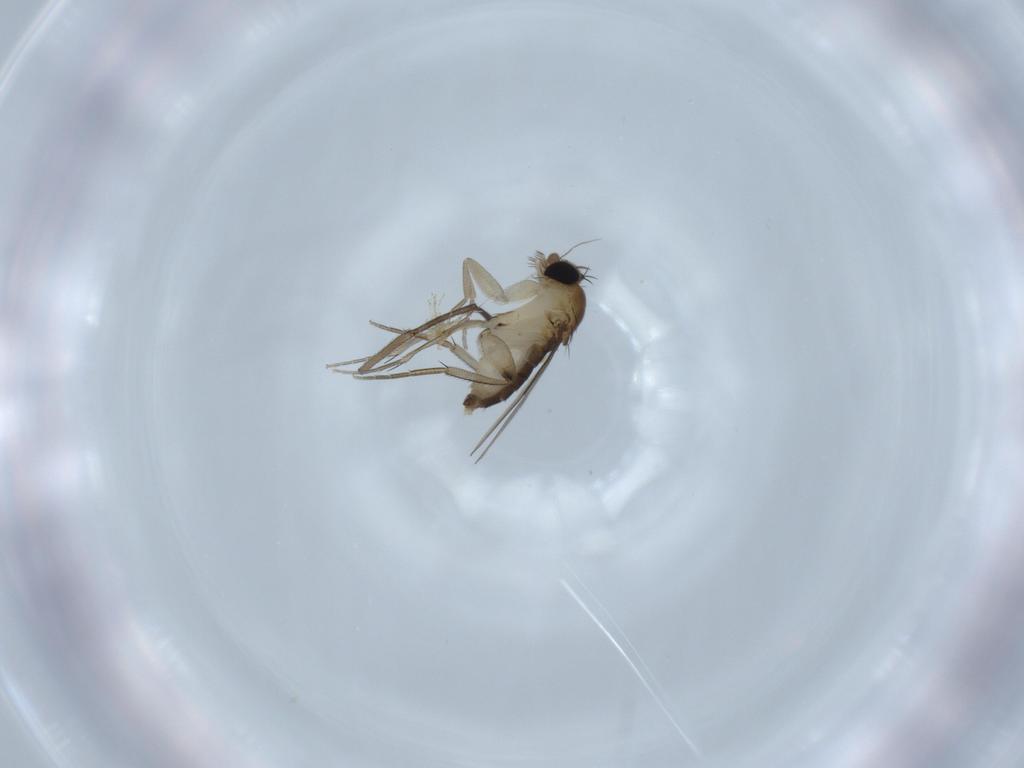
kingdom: Animalia
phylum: Arthropoda
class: Insecta
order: Diptera
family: Sciaridae
